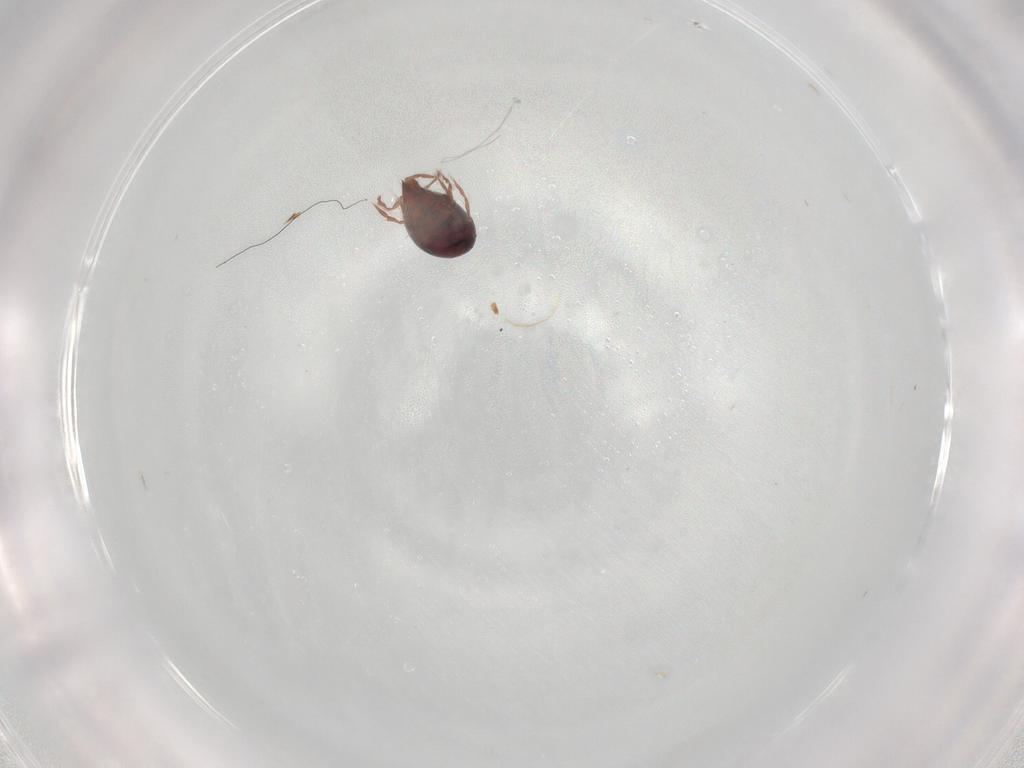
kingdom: Animalia
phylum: Arthropoda
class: Arachnida
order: Sarcoptiformes
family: Ceratoppiidae
